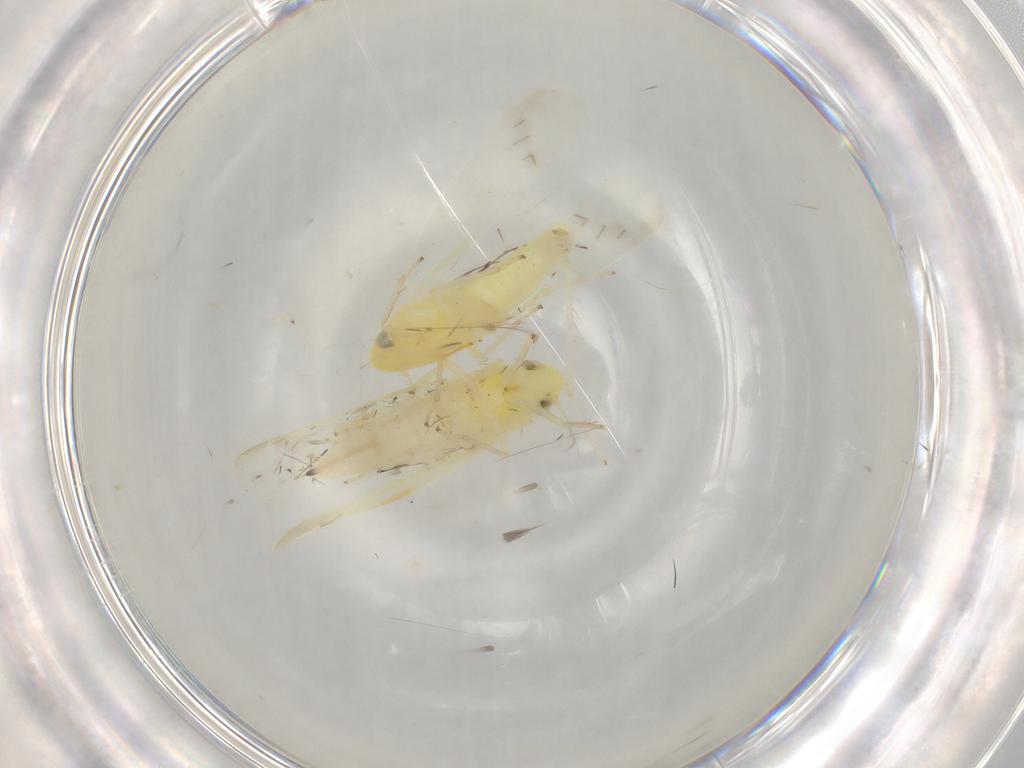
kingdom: Animalia
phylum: Arthropoda
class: Insecta
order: Hemiptera
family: Cicadellidae
